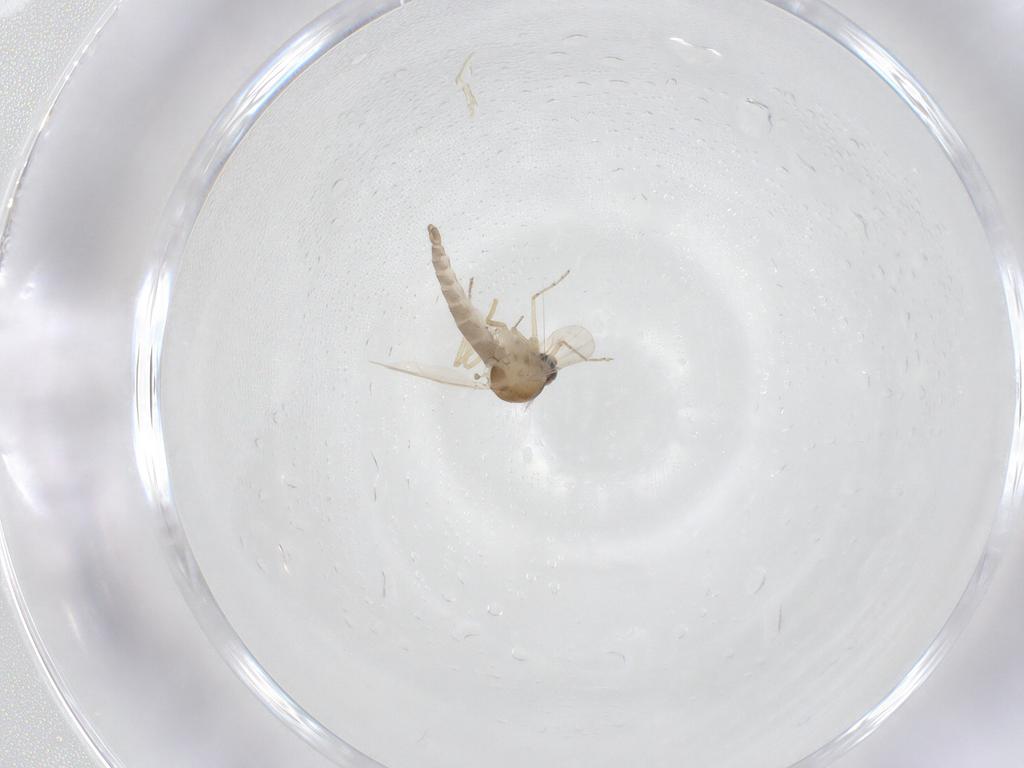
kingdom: Animalia
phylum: Arthropoda
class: Insecta
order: Diptera
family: Ceratopogonidae
